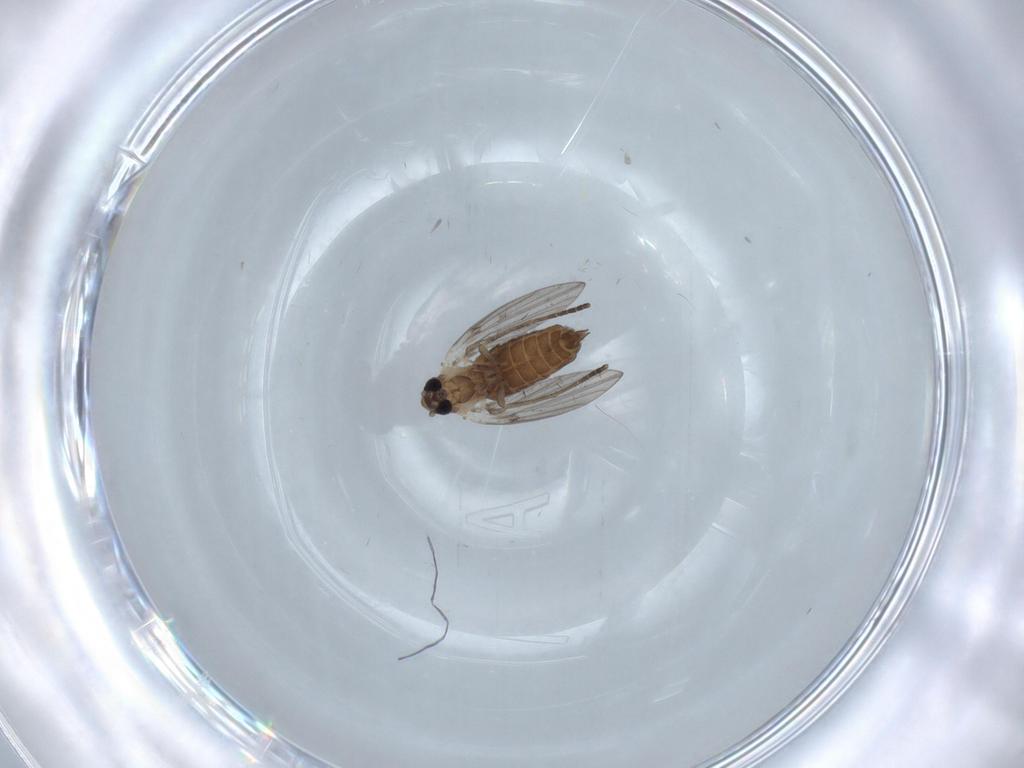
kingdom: Animalia
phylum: Arthropoda
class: Insecta
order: Diptera
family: Psychodidae
